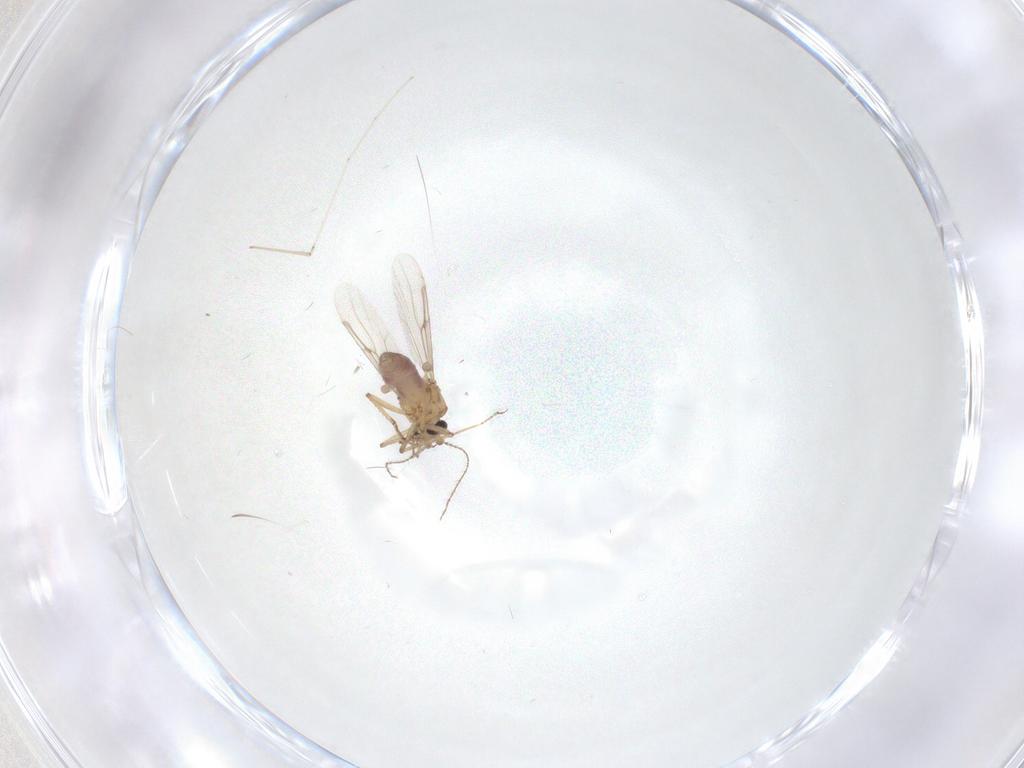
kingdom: Animalia
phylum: Arthropoda
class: Insecta
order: Diptera
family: Ceratopogonidae
